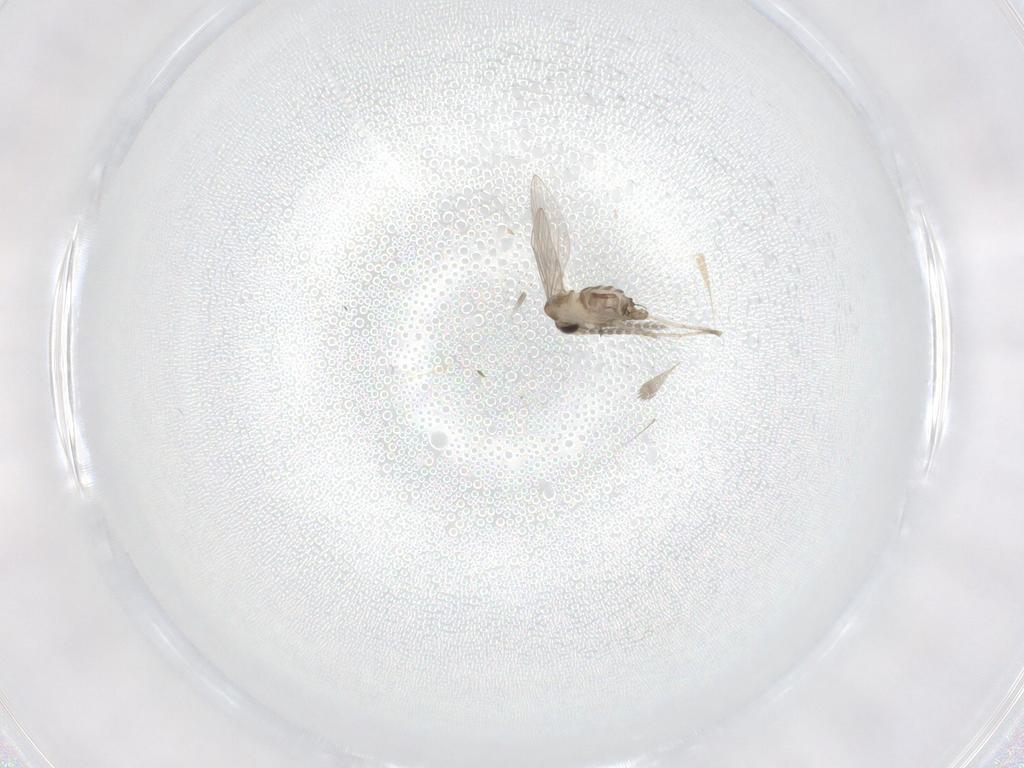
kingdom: Animalia
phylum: Arthropoda
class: Insecta
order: Diptera
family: Psychodidae
